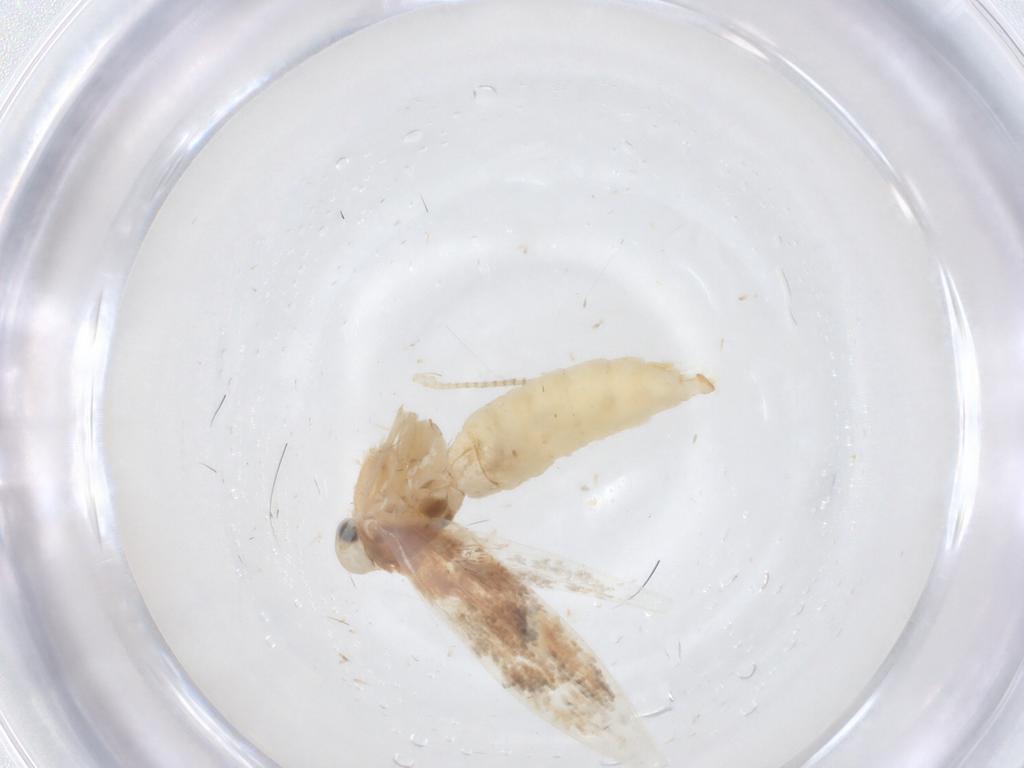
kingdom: Animalia
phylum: Arthropoda
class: Insecta
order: Lepidoptera
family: Gracillariidae
